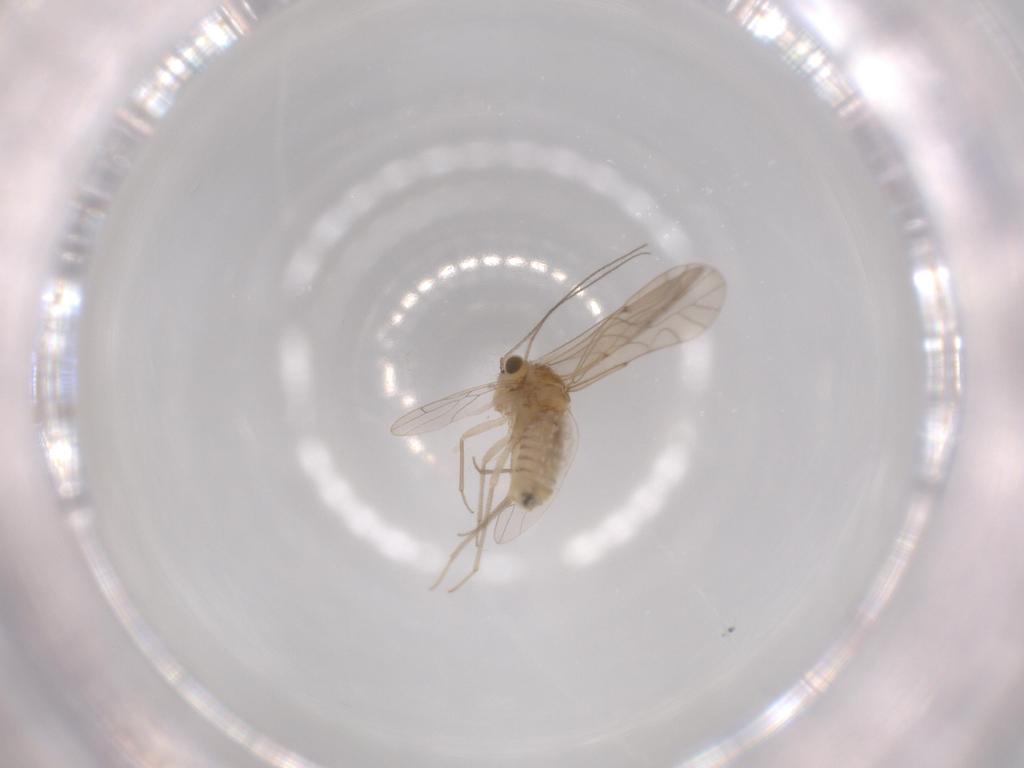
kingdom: Animalia
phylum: Arthropoda
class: Insecta
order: Psocodea
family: Lachesillidae
